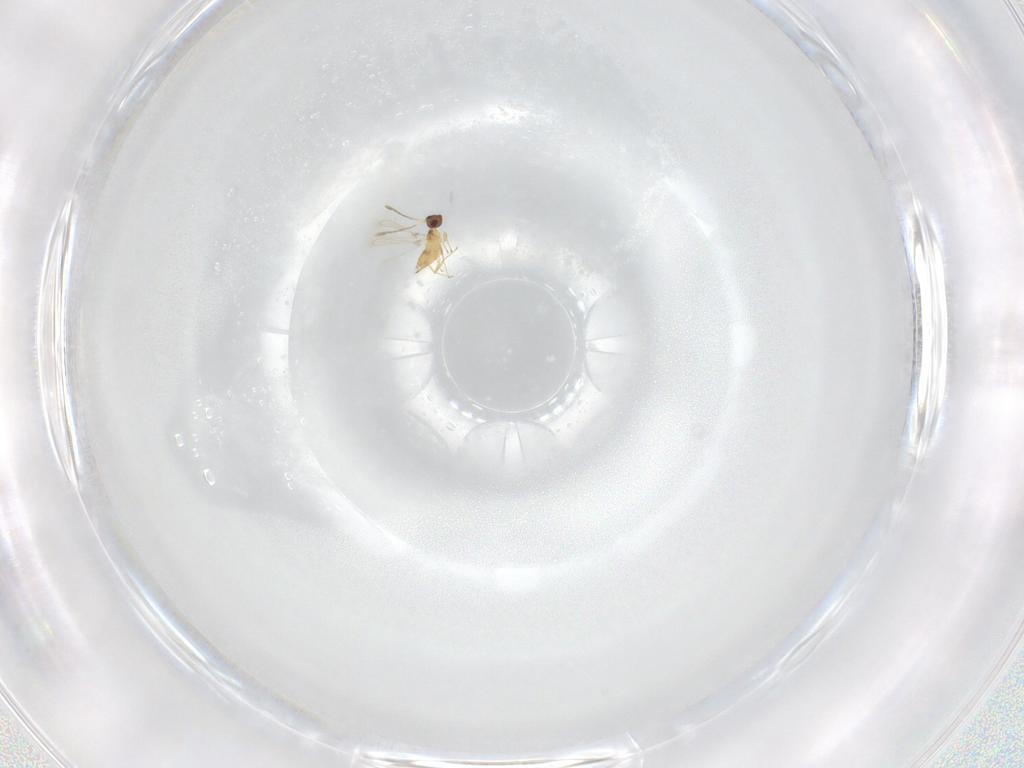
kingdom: Animalia
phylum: Arthropoda
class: Insecta
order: Hymenoptera
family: Mymaridae
